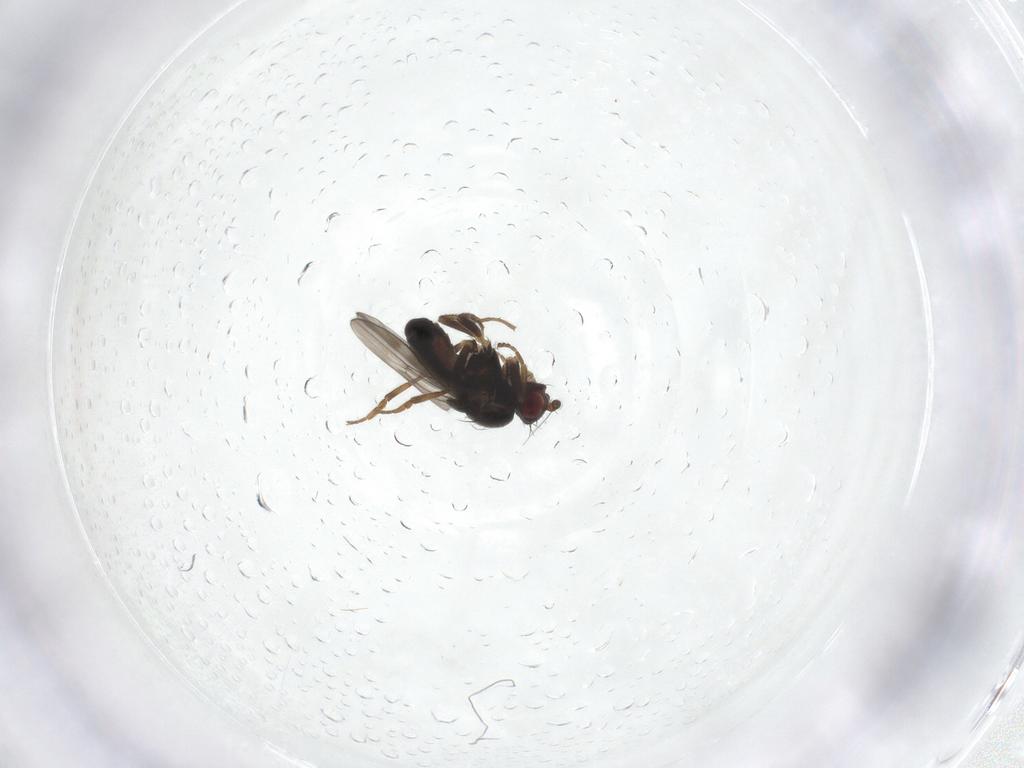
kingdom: Animalia
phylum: Arthropoda
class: Insecta
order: Diptera
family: Sphaeroceridae
